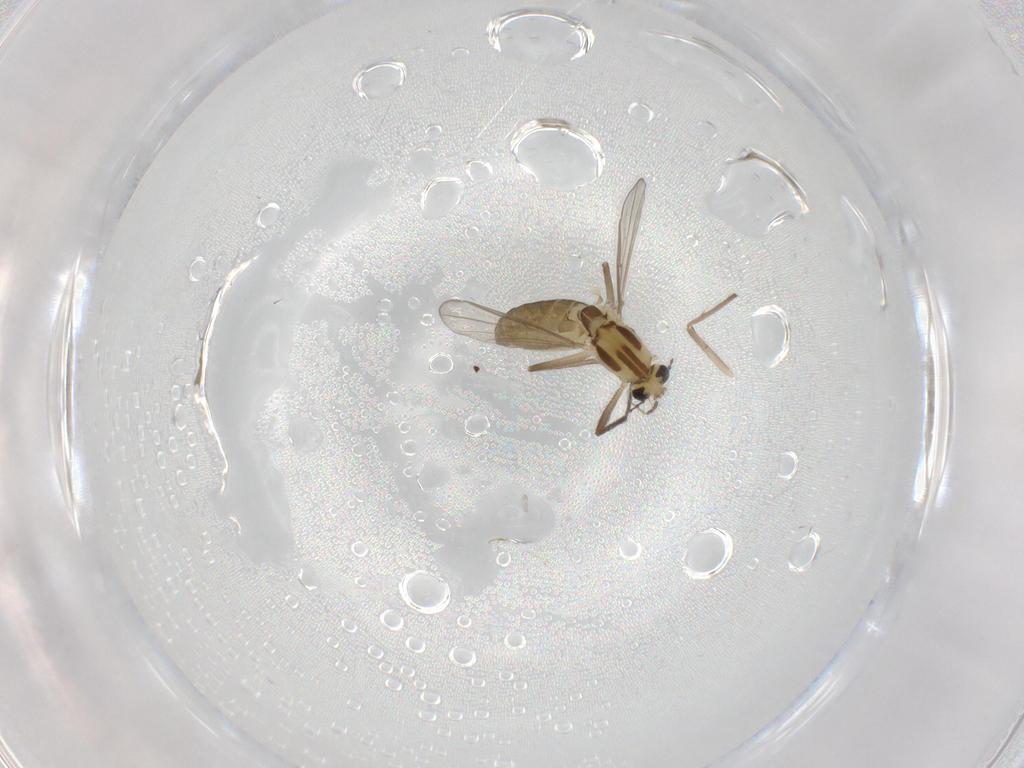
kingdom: Animalia
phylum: Arthropoda
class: Insecta
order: Diptera
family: Chironomidae
